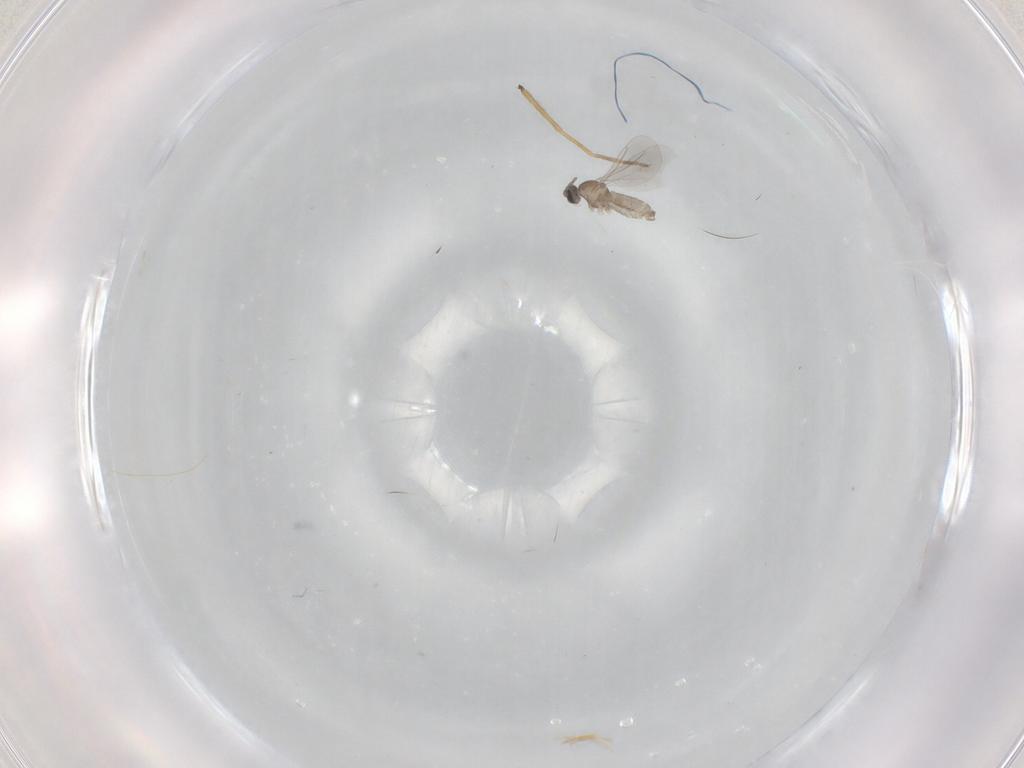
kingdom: Animalia
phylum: Arthropoda
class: Insecta
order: Diptera
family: Cecidomyiidae
